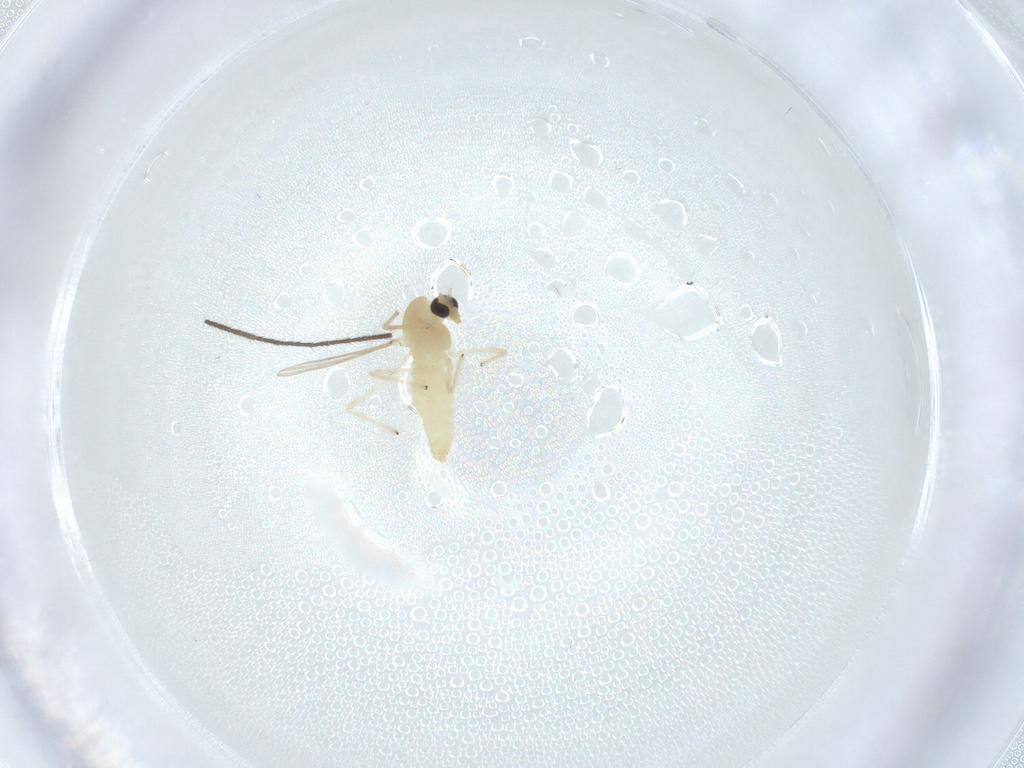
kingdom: Animalia
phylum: Arthropoda
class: Insecta
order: Diptera
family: Chironomidae
